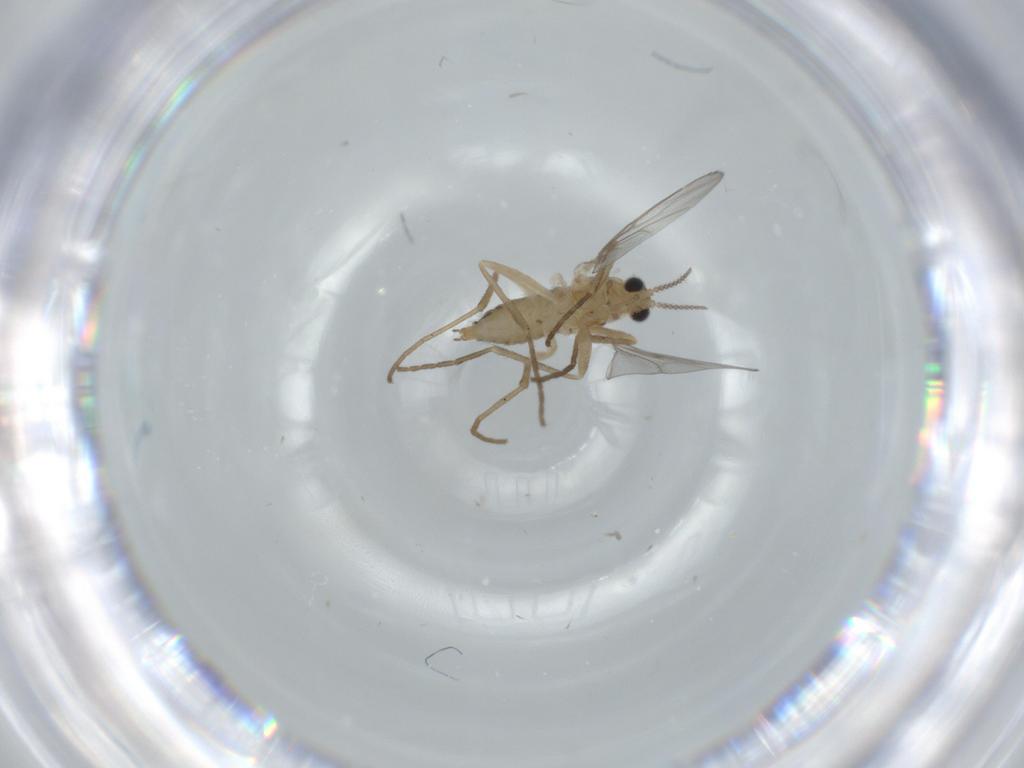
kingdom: Animalia
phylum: Arthropoda
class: Insecta
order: Diptera
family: Cecidomyiidae
